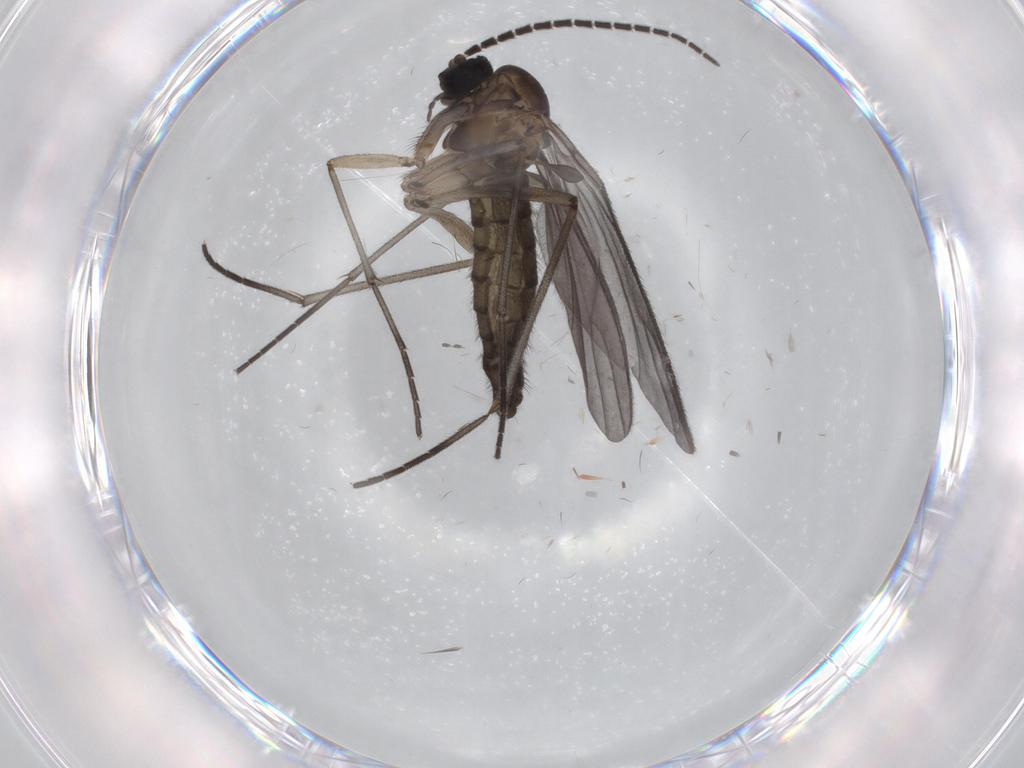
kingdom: Animalia
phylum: Arthropoda
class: Insecta
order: Diptera
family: Sciaridae
